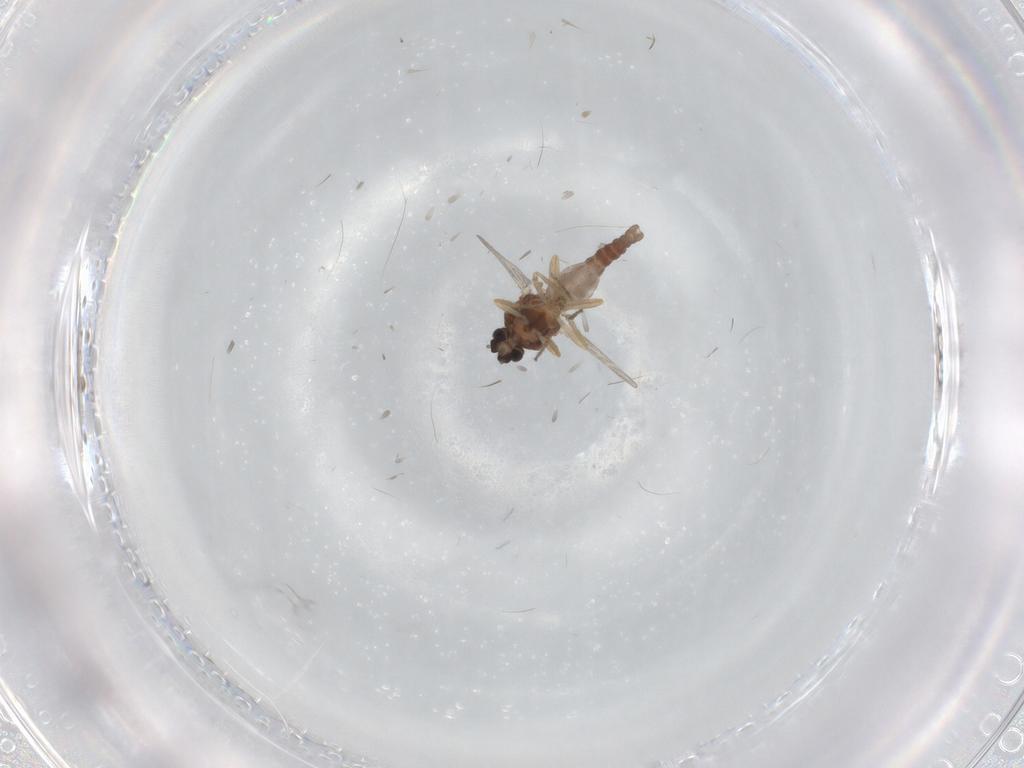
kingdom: Animalia
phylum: Arthropoda
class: Insecta
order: Diptera
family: Ceratopogonidae
